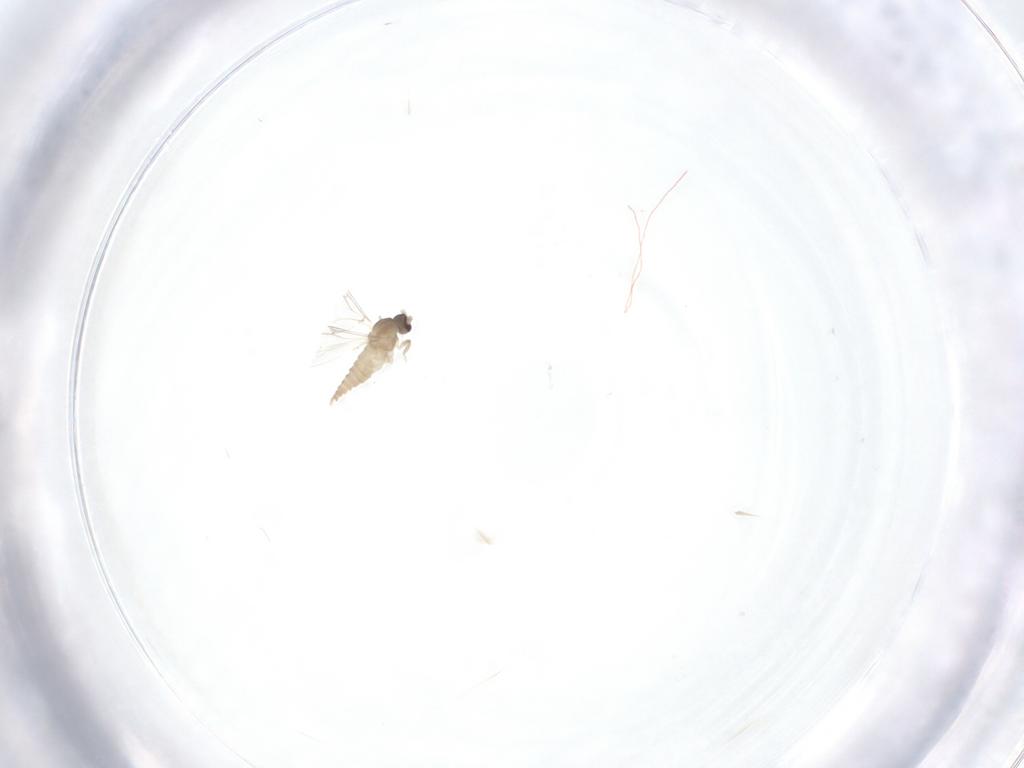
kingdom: Animalia
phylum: Arthropoda
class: Insecta
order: Diptera
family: Cecidomyiidae
